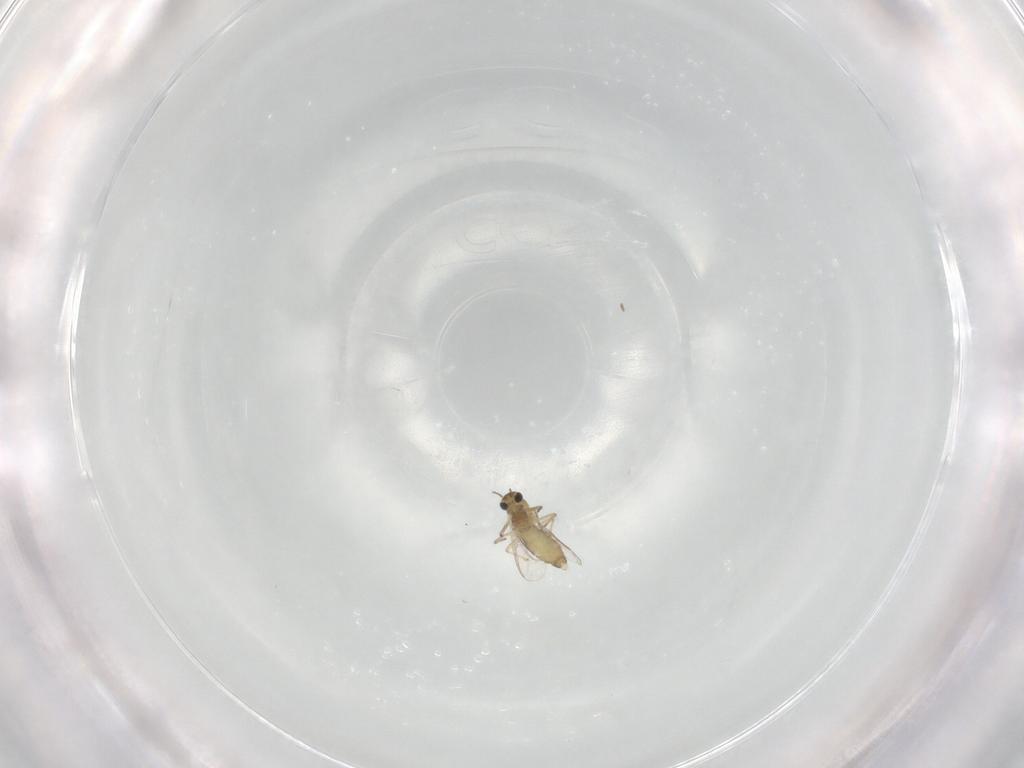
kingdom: Animalia
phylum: Arthropoda
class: Insecta
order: Diptera
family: Chironomidae
